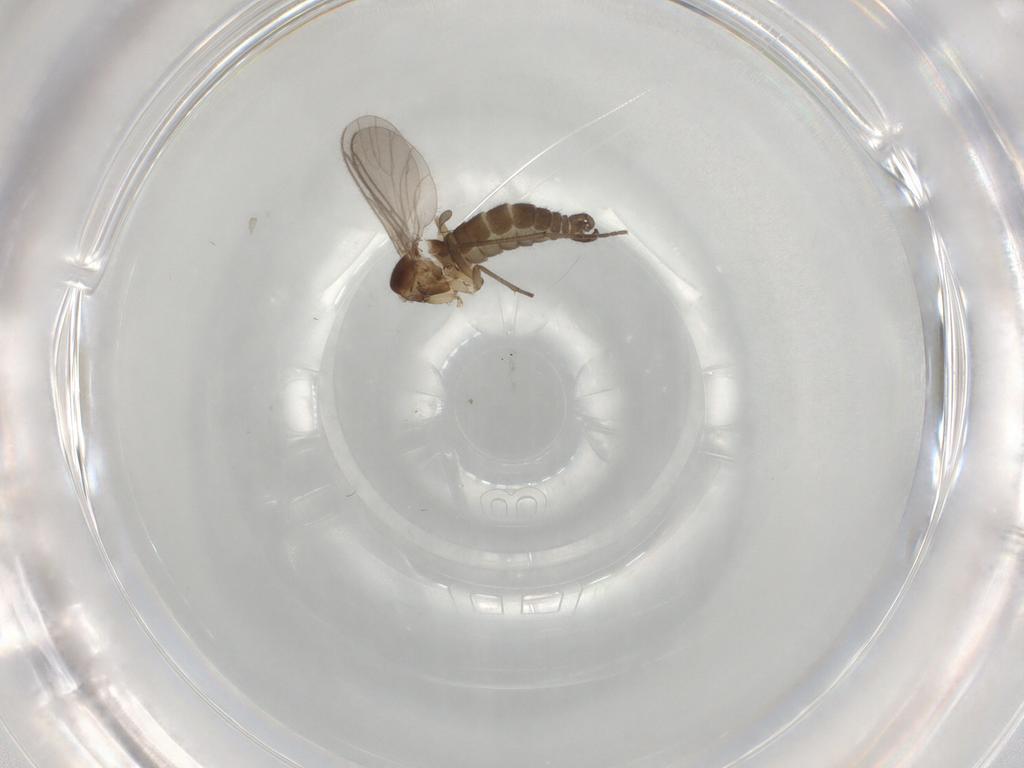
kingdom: Animalia
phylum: Arthropoda
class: Insecta
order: Diptera
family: Sciaridae
